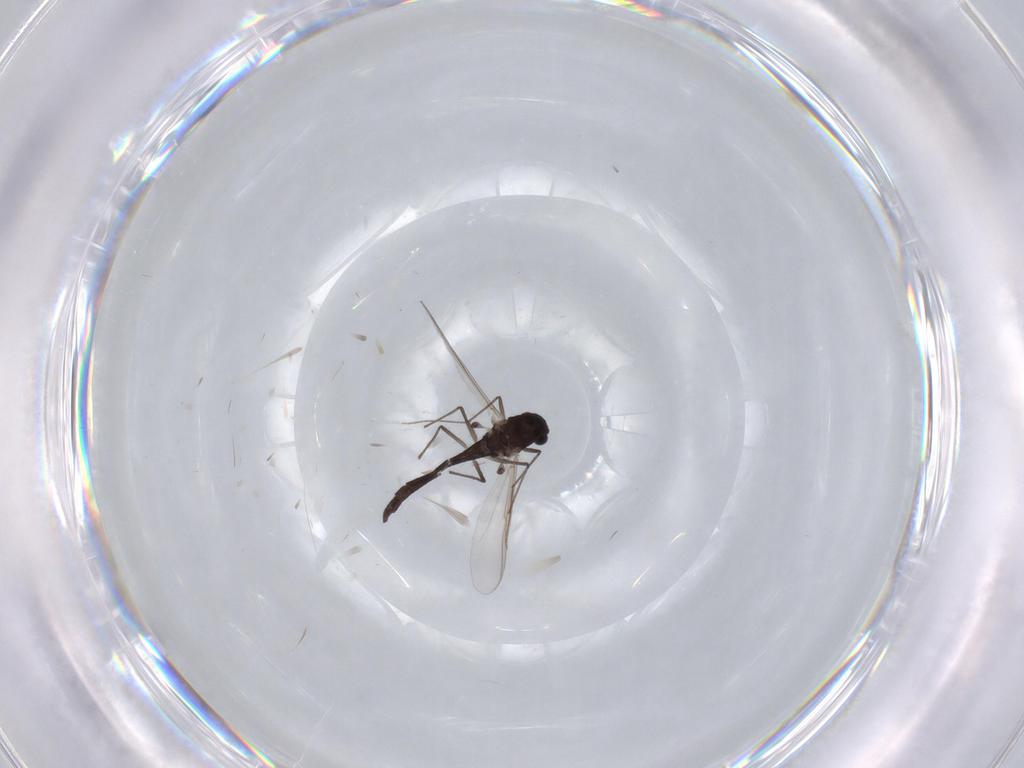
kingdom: Animalia
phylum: Arthropoda
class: Insecta
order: Diptera
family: Chironomidae
